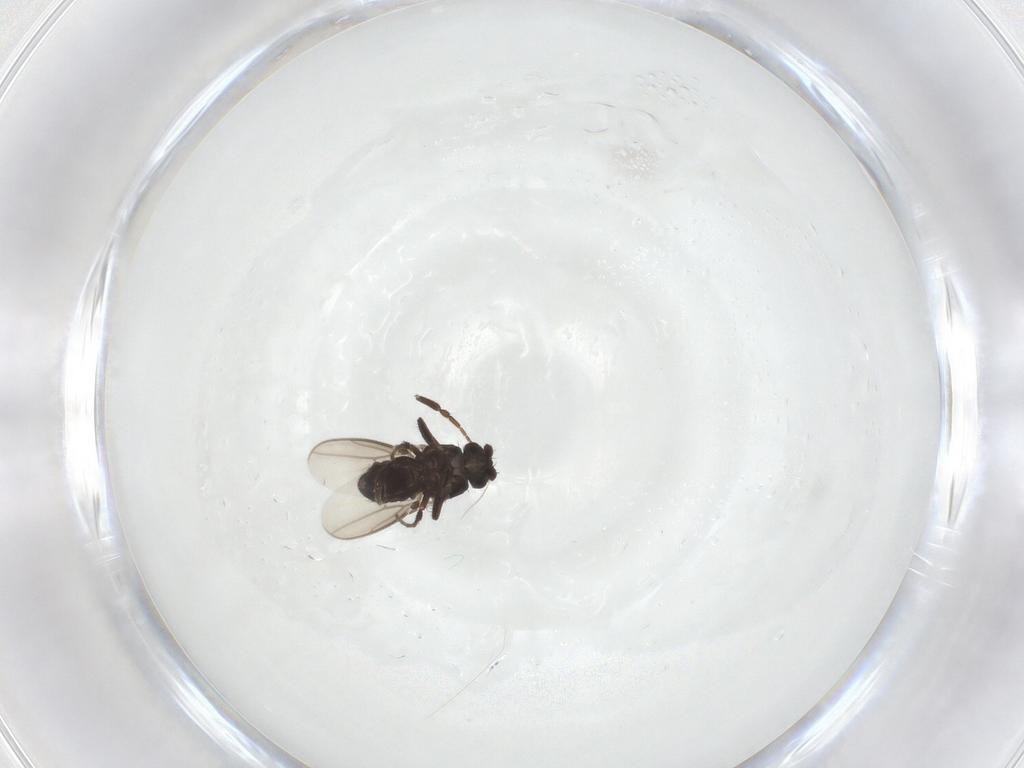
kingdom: Animalia
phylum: Arthropoda
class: Insecta
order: Diptera
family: Sphaeroceridae
